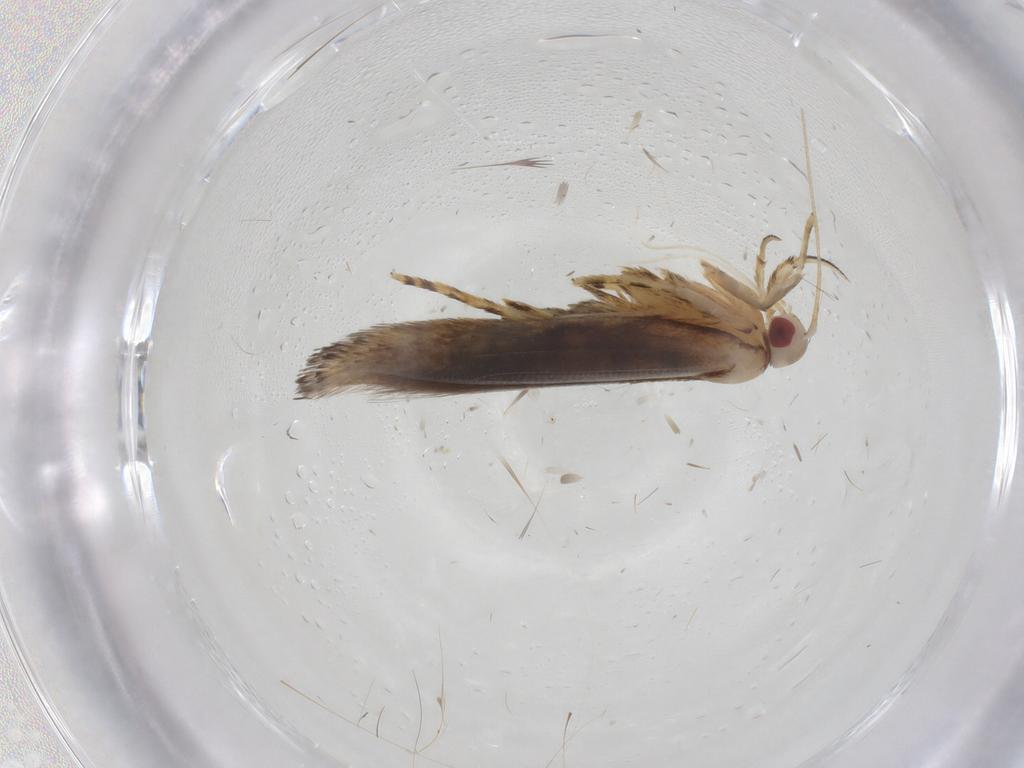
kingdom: Animalia
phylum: Arthropoda
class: Insecta
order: Lepidoptera
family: Cosmopterigidae
